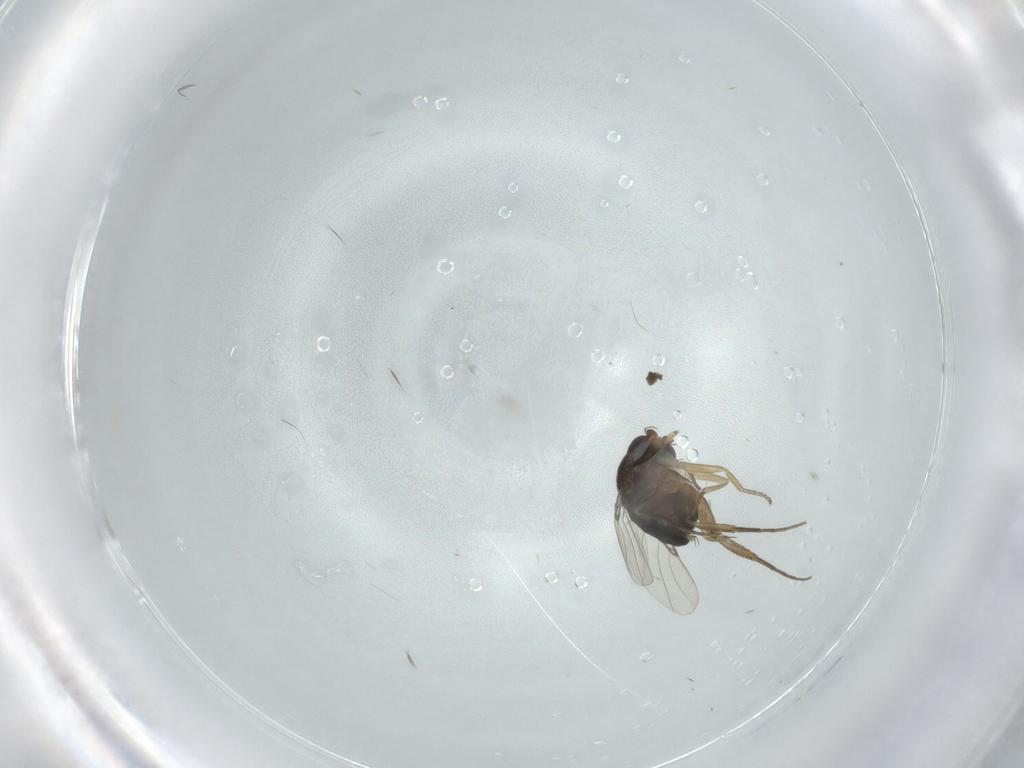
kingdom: Animalia
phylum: Arthropoda
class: Insecta
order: Diptera
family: Phoridae
